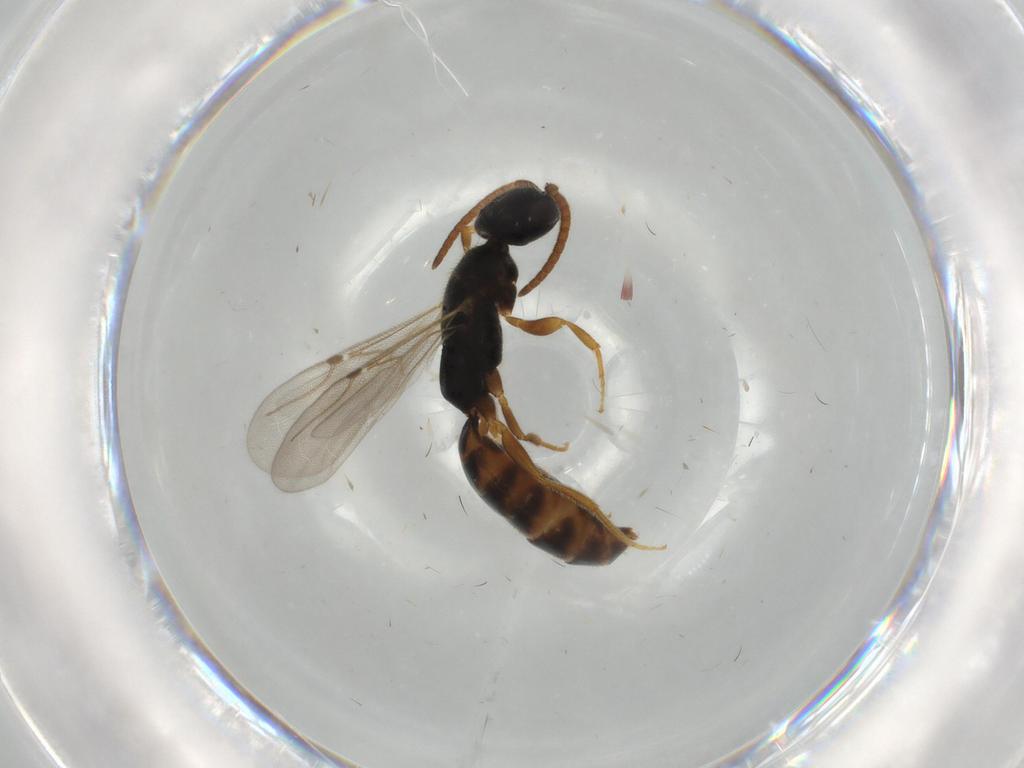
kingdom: Animalia
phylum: Arthropoda
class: Insecta
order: Hymenoptera
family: Bethylidae
